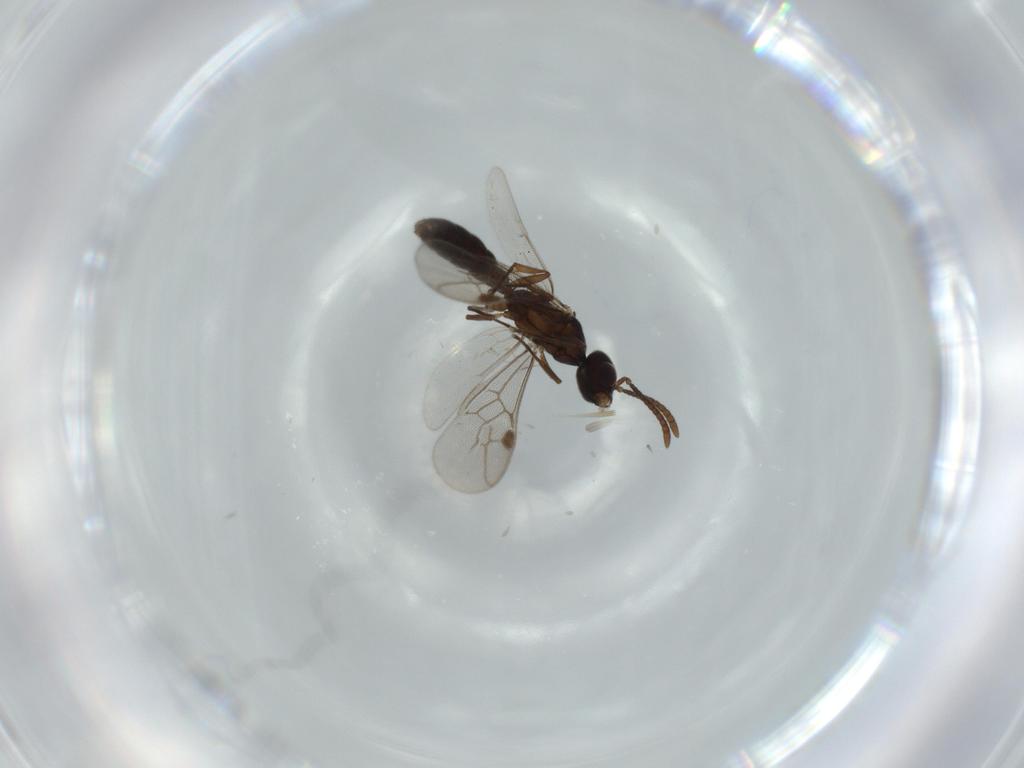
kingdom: Animalia
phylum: Arthropoda
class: Insecta
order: Hymenoptera
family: Formicidae
